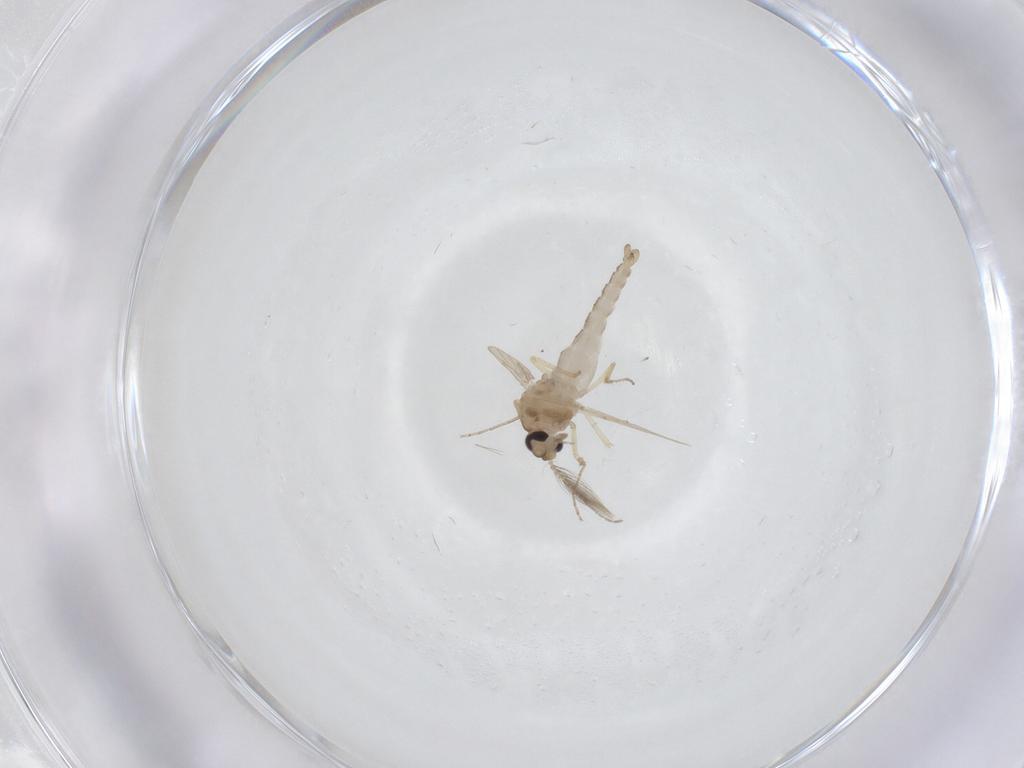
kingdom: Animalia
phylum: Arthropoda
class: Insecta
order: Diptera
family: Ceratopogonidae
